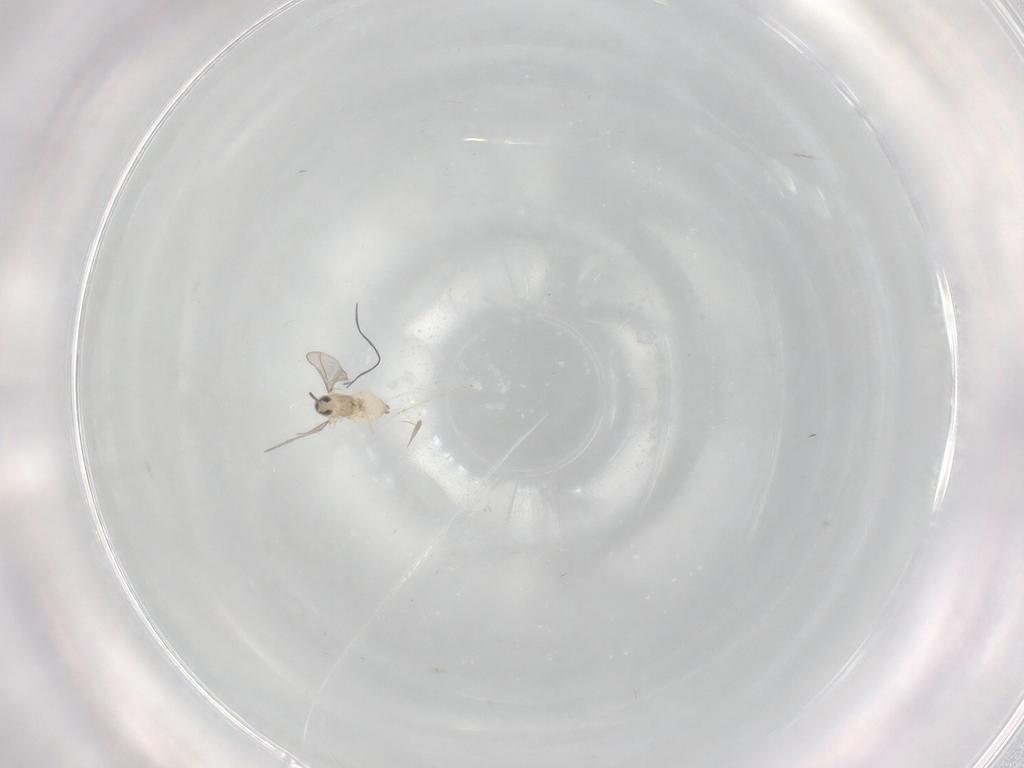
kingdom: Animalia
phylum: Arthropoda
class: Insecta
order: Diptera
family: Cecidomyiidae
